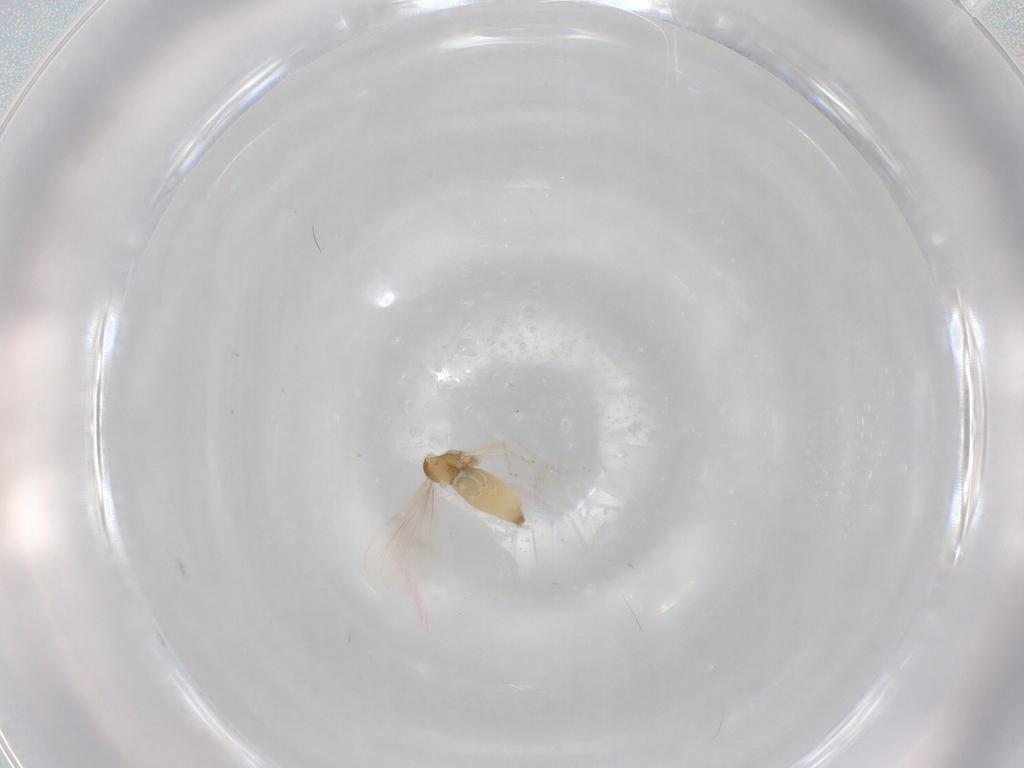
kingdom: Animalia
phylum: Arthropoda
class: Insecta
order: Diptera
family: Cecidomyiidae
